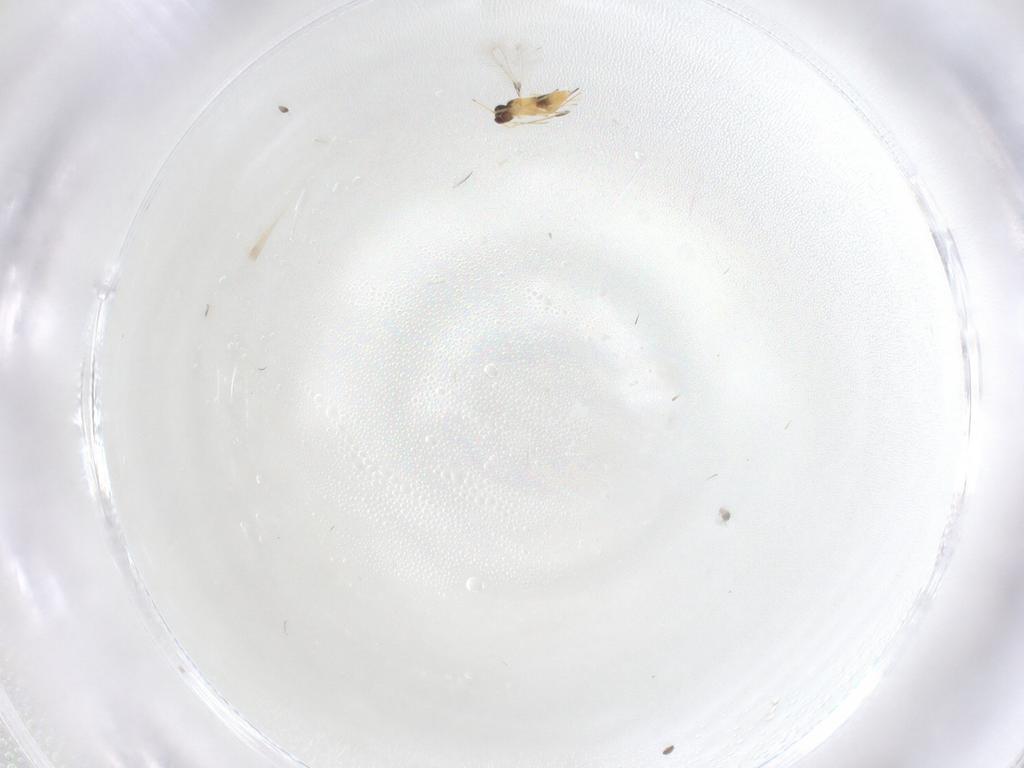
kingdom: Animalia
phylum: Arthropoda
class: Insecta
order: Hymenoptera
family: Mymaridae
